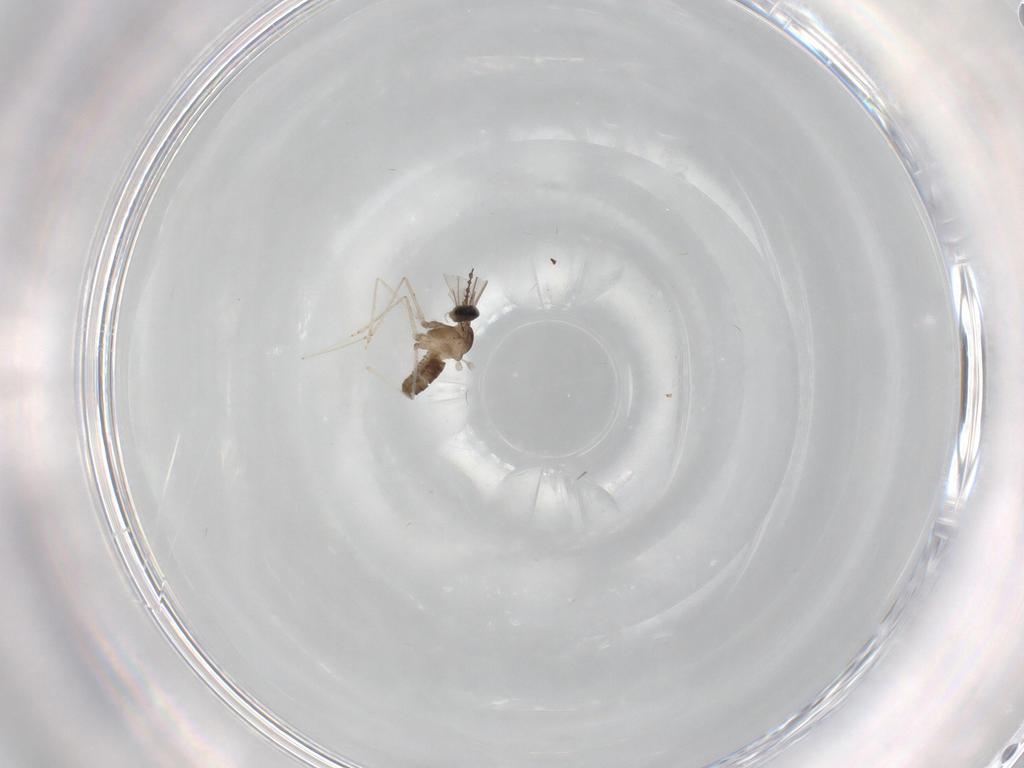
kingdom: Animalia
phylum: Arthropoda
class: Insecta
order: Diptera
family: Cecidomyiidae
